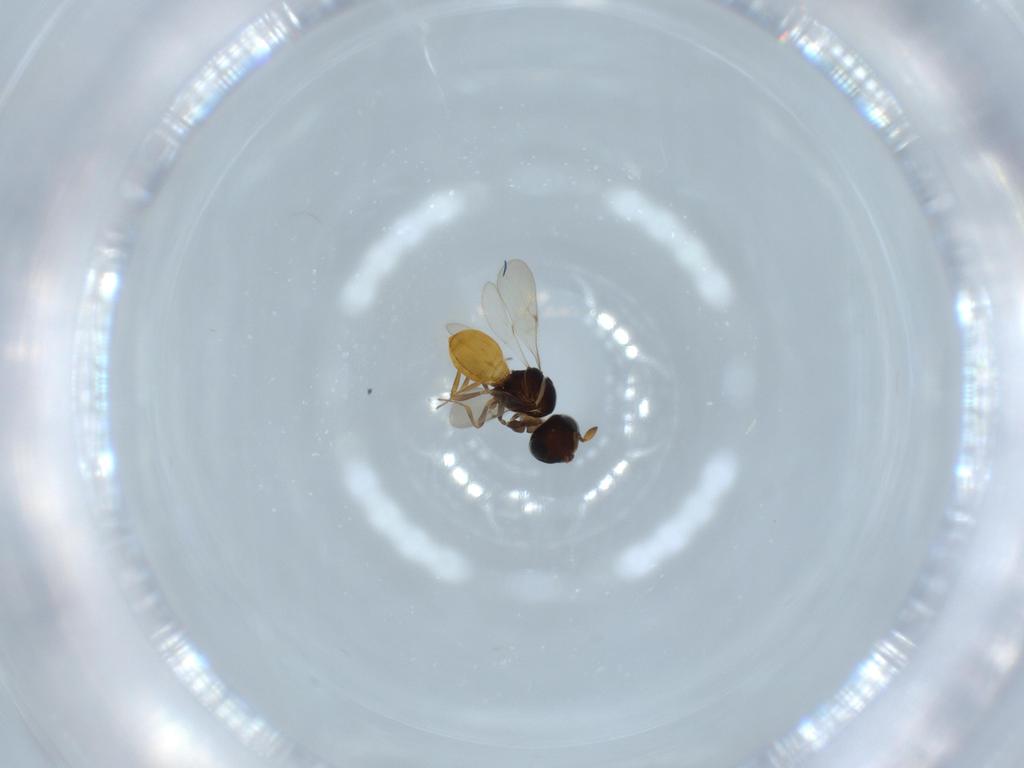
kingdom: Animalia
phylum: Arthropoda
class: Insecta
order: Hymenoptera
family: Scelionidae
